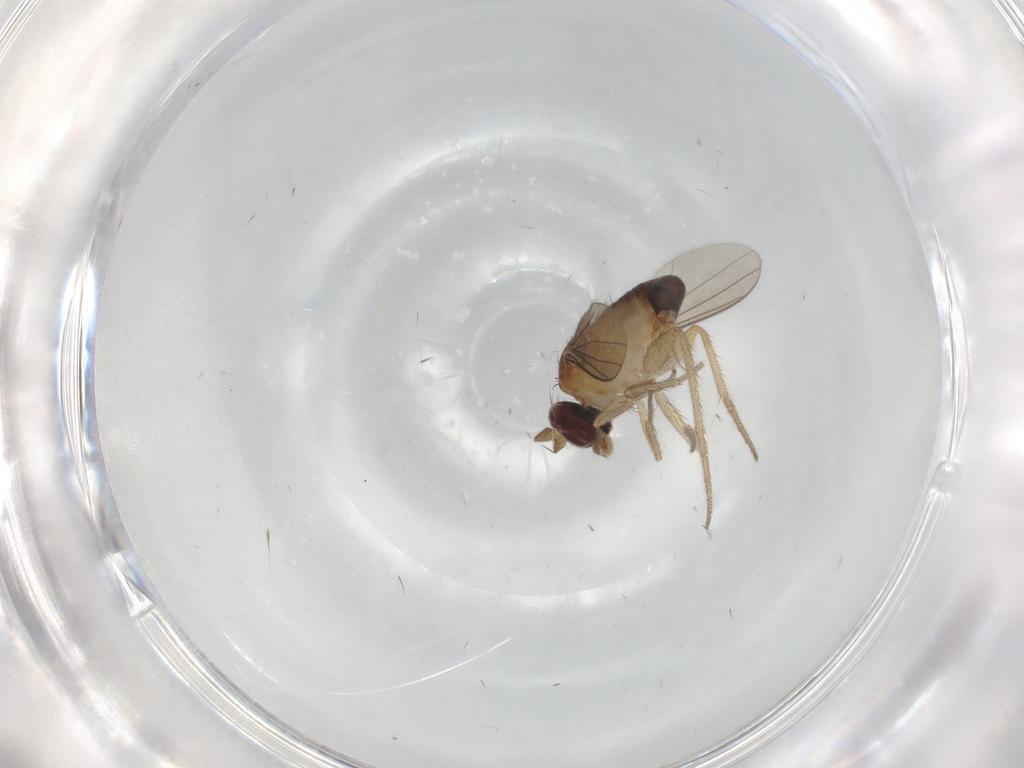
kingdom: Animalia
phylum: Arthropoda
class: Insecta
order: Diptera
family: Dolichopodidae
